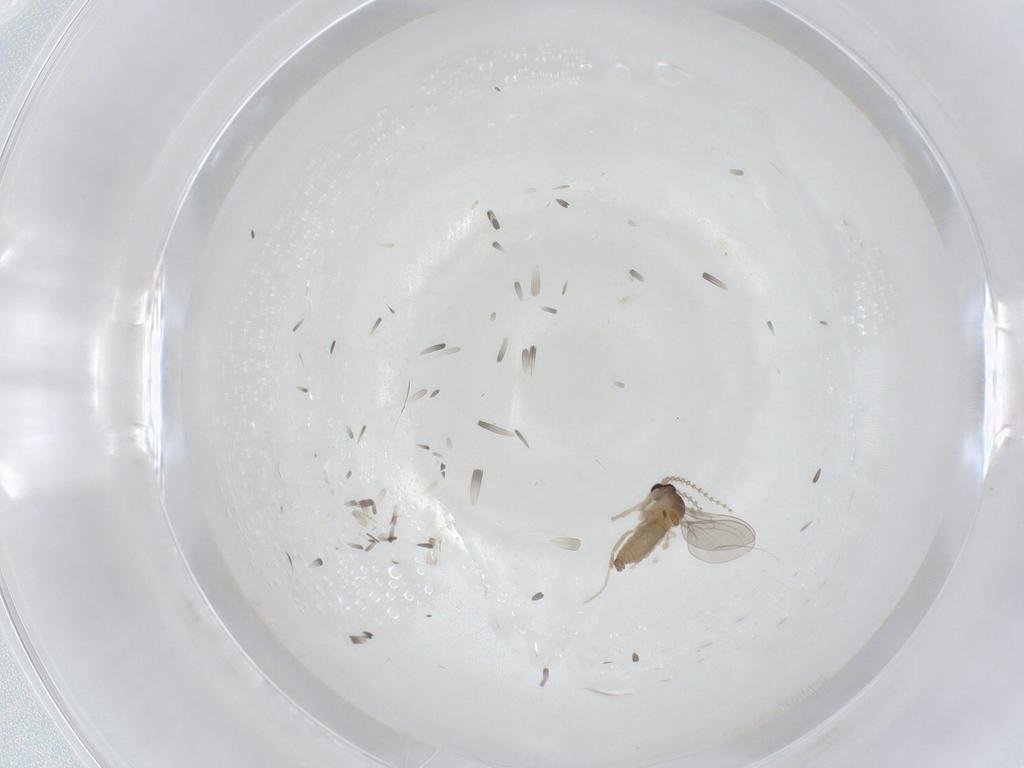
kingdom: Animalia
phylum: Arthropoda
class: Insecta
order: Diptera
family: Cecidomyiidae
